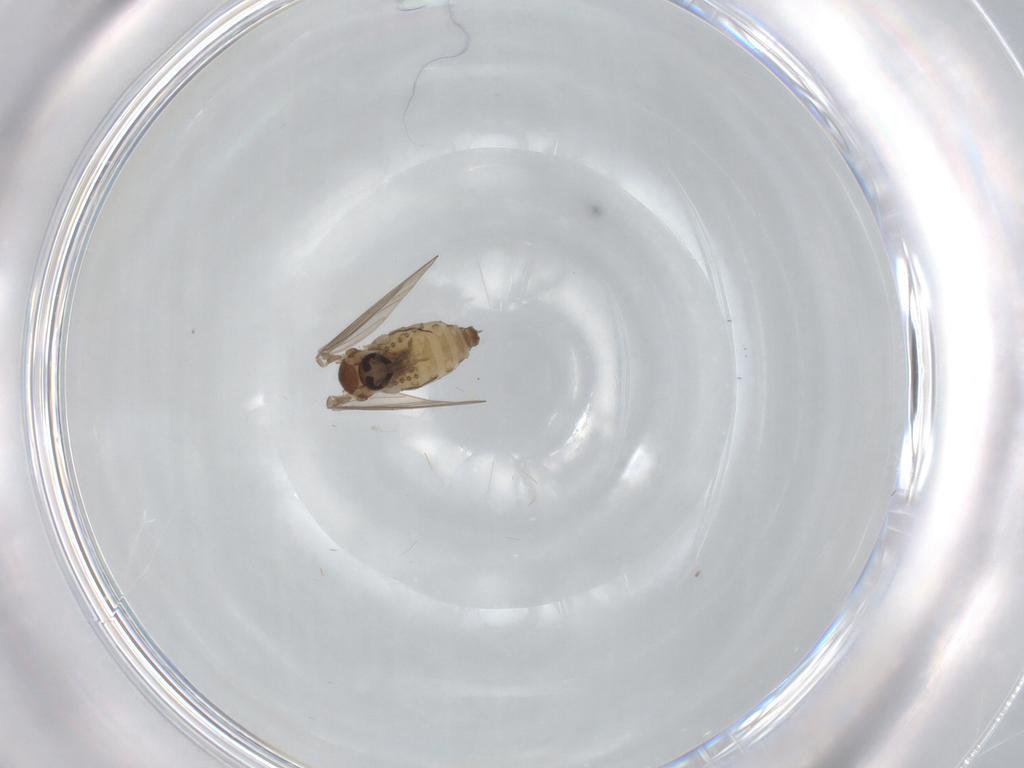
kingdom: Animalia
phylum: Arthropoda
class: Insecta
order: Diptera
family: Psychodidae
